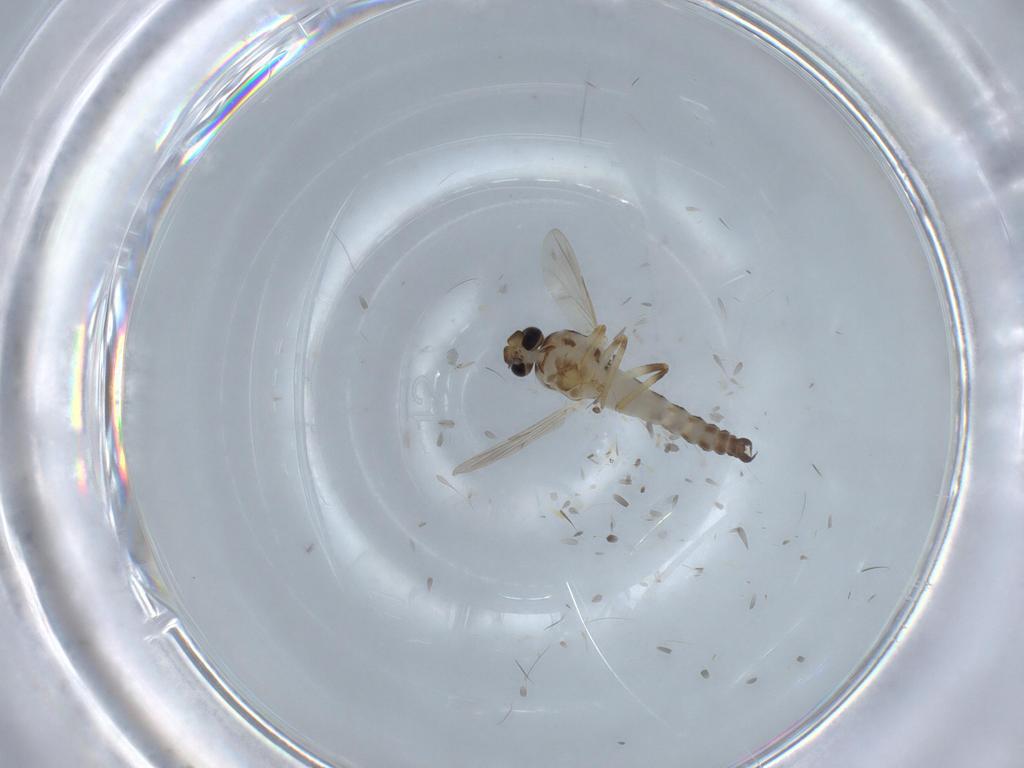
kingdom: Animalia
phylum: Arthropoda
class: Insecta
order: Diptera
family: Ceratopogonidae
